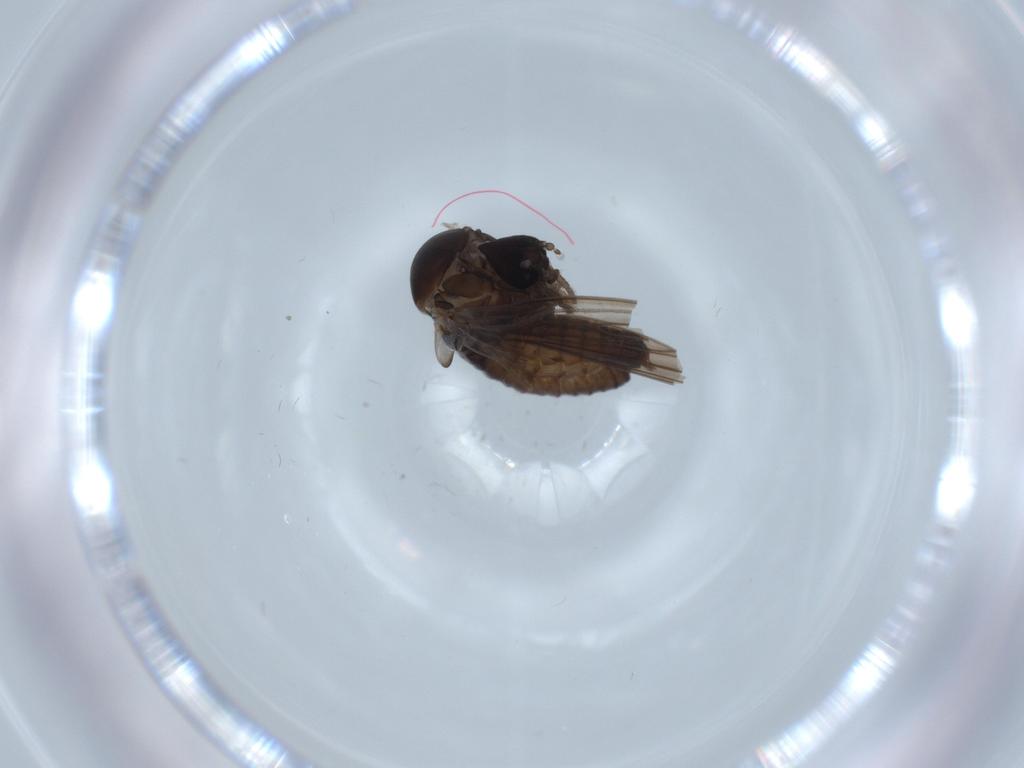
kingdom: Animalia
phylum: Arthropoda
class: Insecta
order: Diptera
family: Psychodidae
